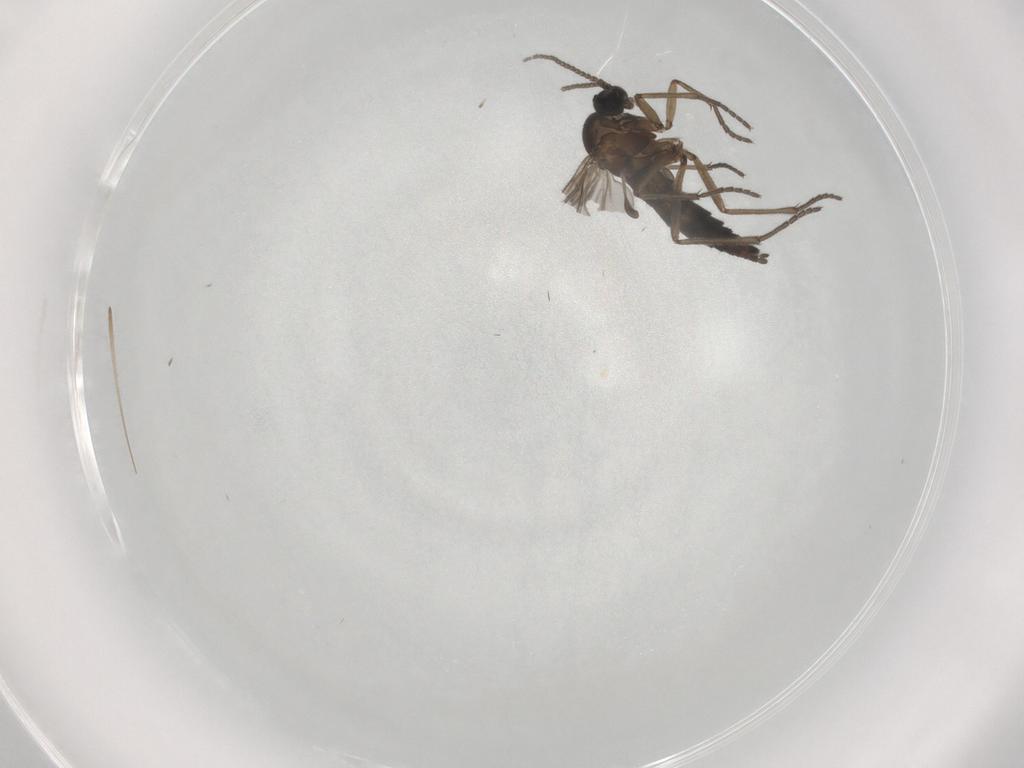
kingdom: Animalia
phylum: Arthropoda
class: Insecta
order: Diptera
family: Sciaridae
